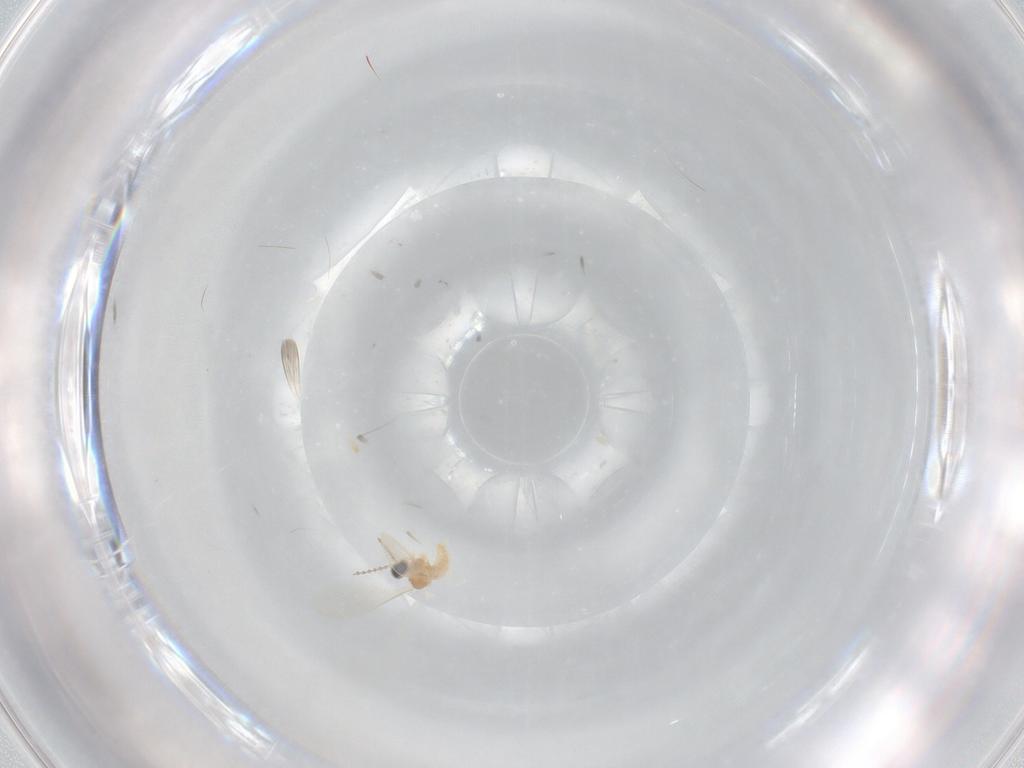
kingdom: Animalia
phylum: Arthropoda
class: Insecta
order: Diptera
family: Cecidomyiidae
